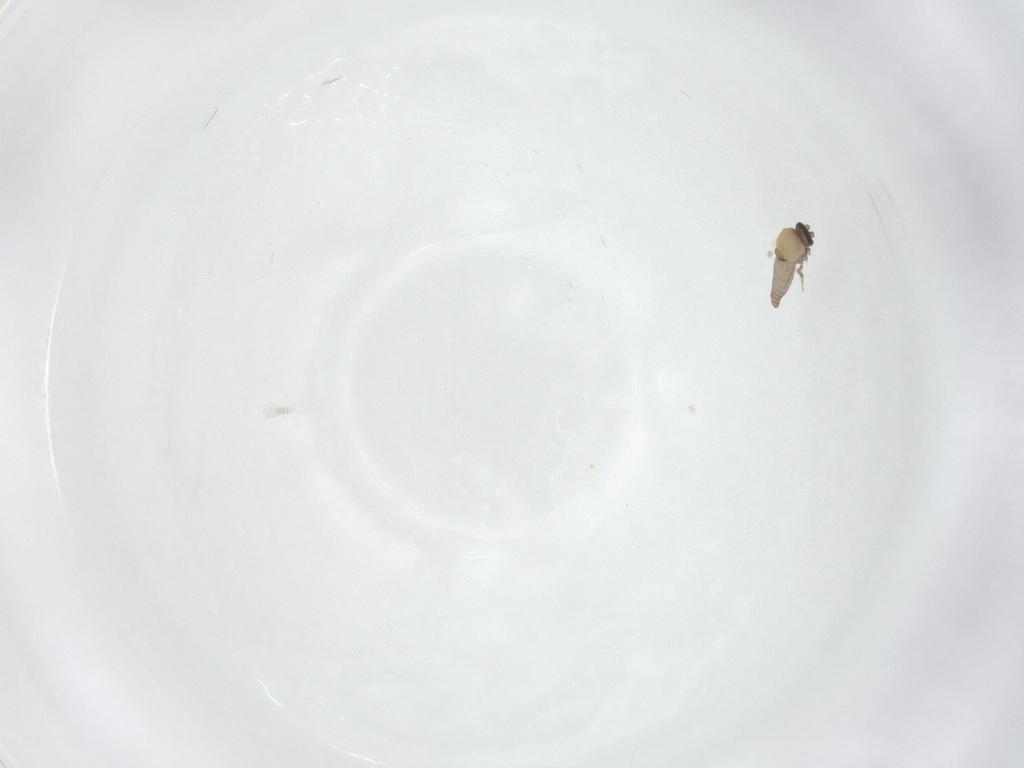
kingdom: Animalia
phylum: Arthropoda
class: Insecta
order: Diptera
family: Ceratopogonidae
